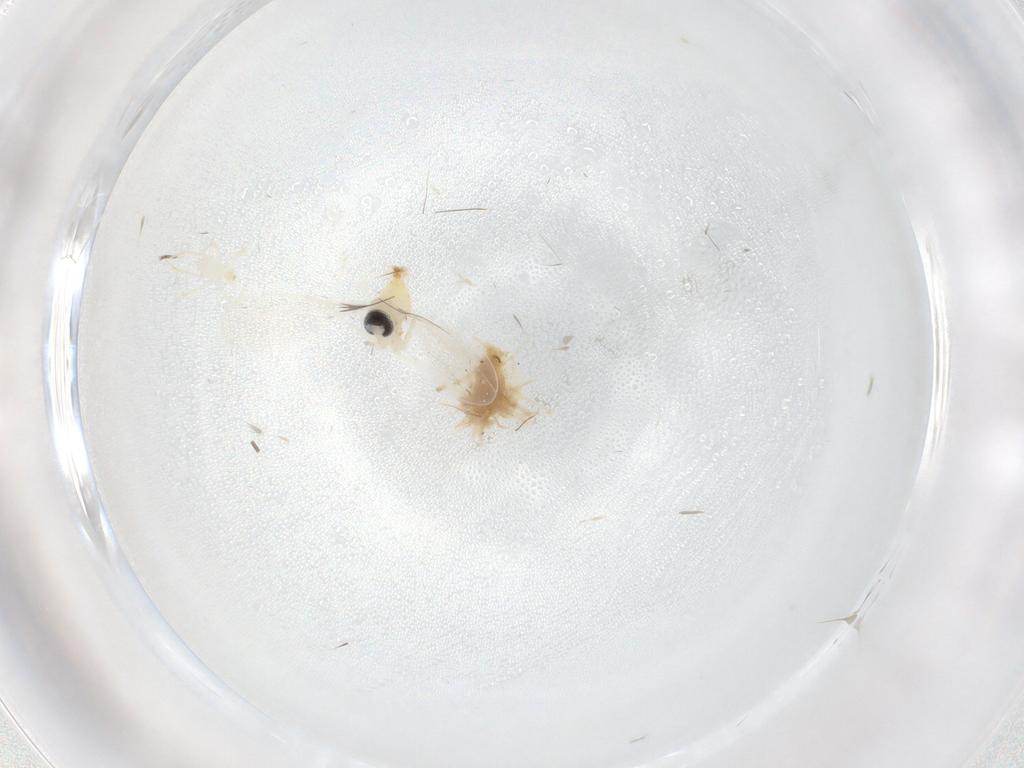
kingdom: Animalia
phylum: Arthropoda
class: Insecta
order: Diptera
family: Cecidomyiidae
